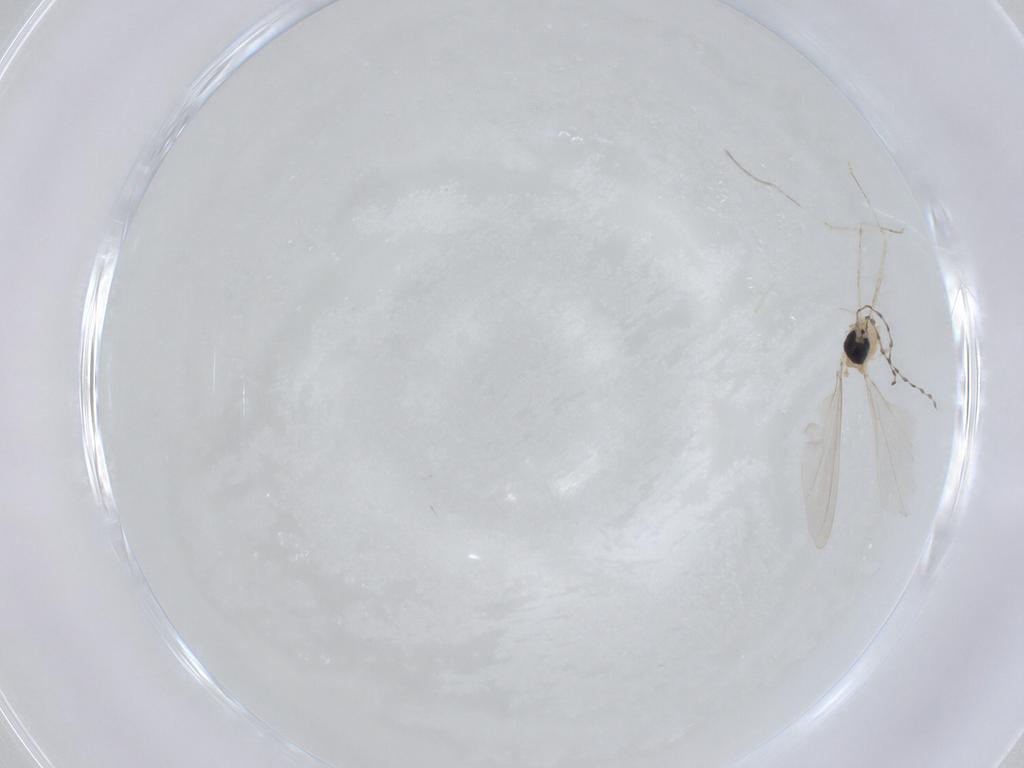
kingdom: Animalia
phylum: Arthropoda
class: Insecta
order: Diptera
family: Cecidomyiidae
